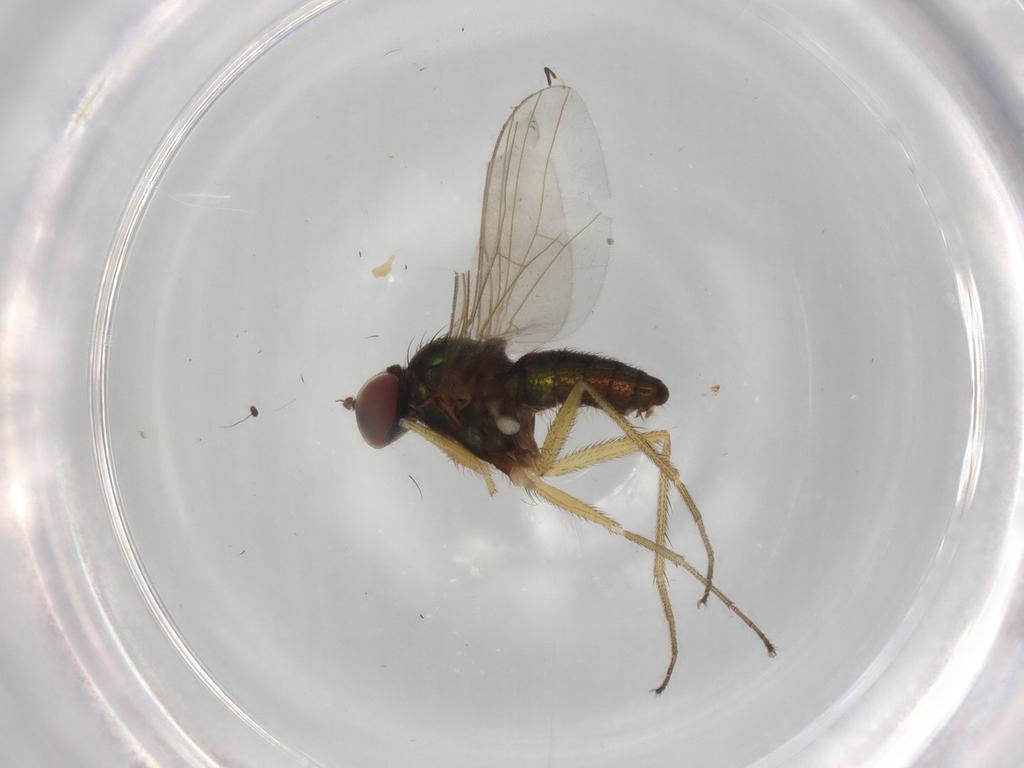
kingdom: Animalia
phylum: Arthropoda
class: Insecta
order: Diptera
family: Dolichopodidae
